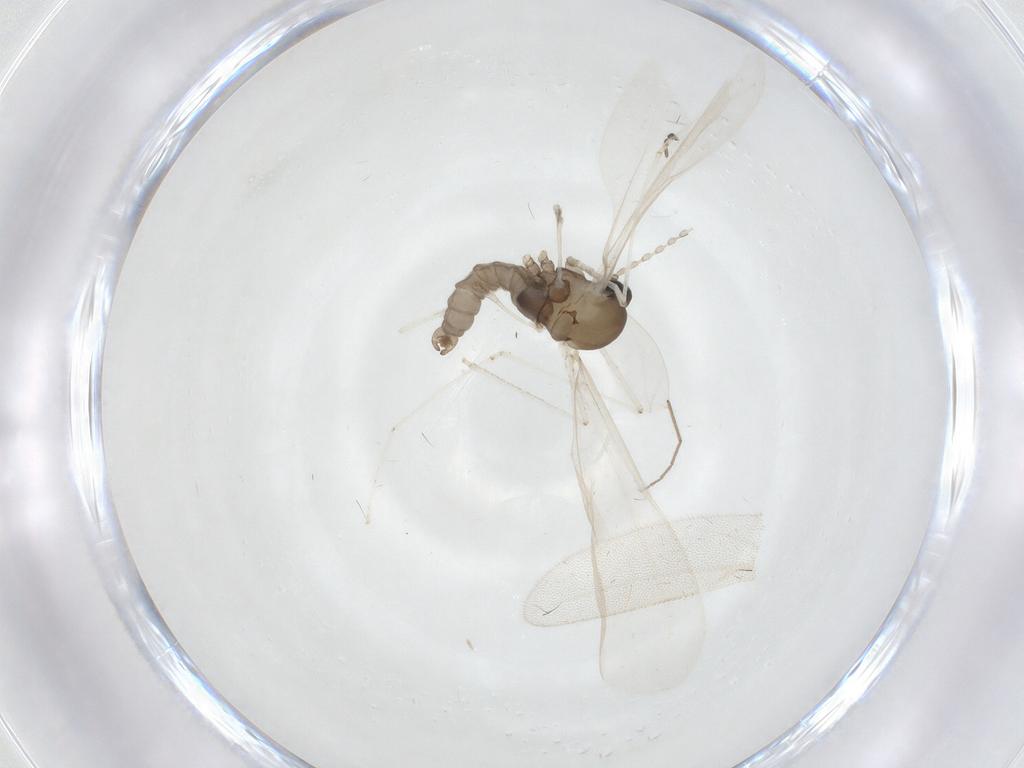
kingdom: Animalia
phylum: Arthropoda
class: Insecta
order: Diptera
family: Cecidomyiidae
